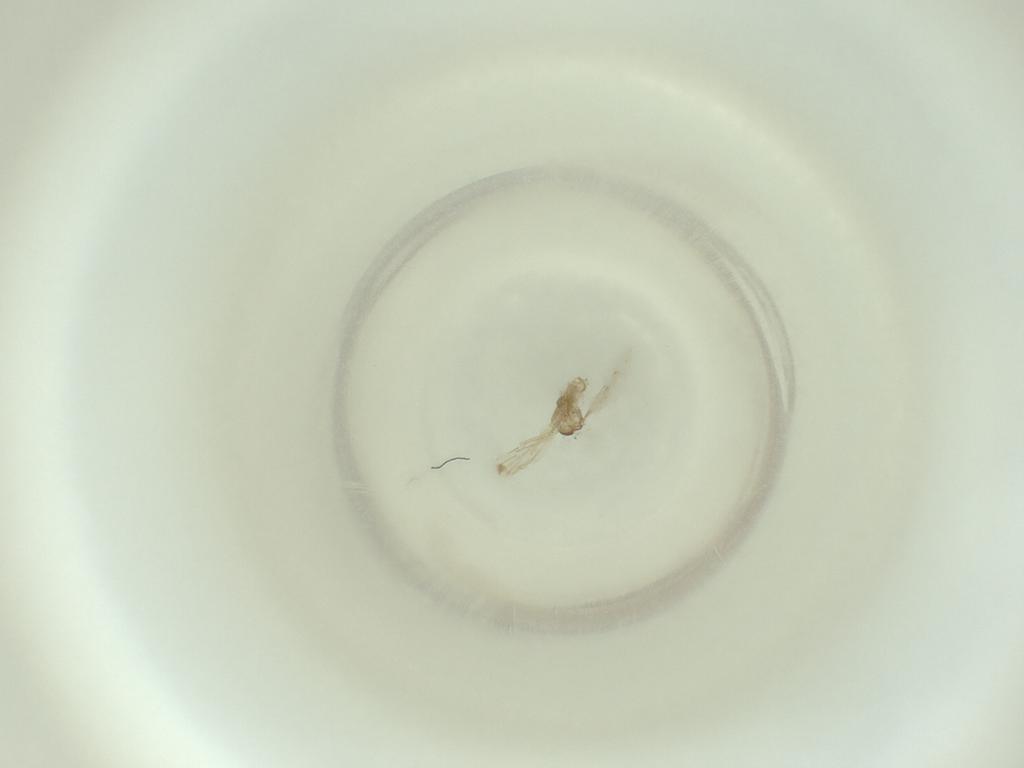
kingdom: Animalia
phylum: Arthropoda
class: Insecta
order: Diptera
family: Cecidomyiidae
